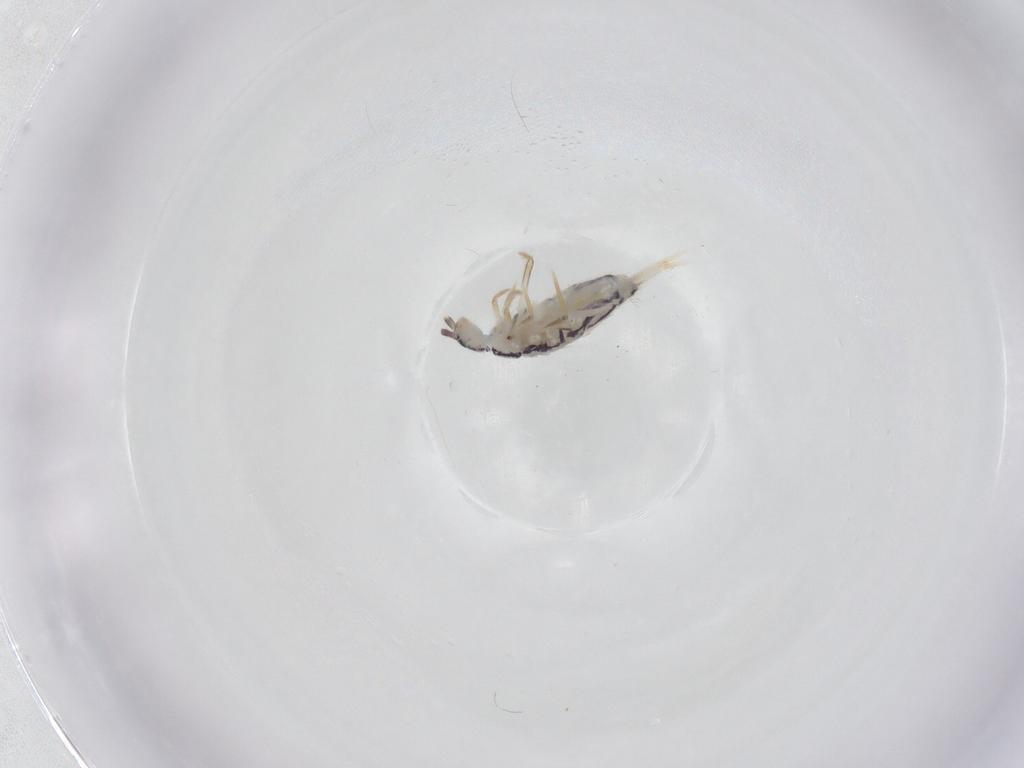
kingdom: Animalia
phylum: Arthropoda
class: Collembola
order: Entomobryomorpha
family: Entomobryidae
